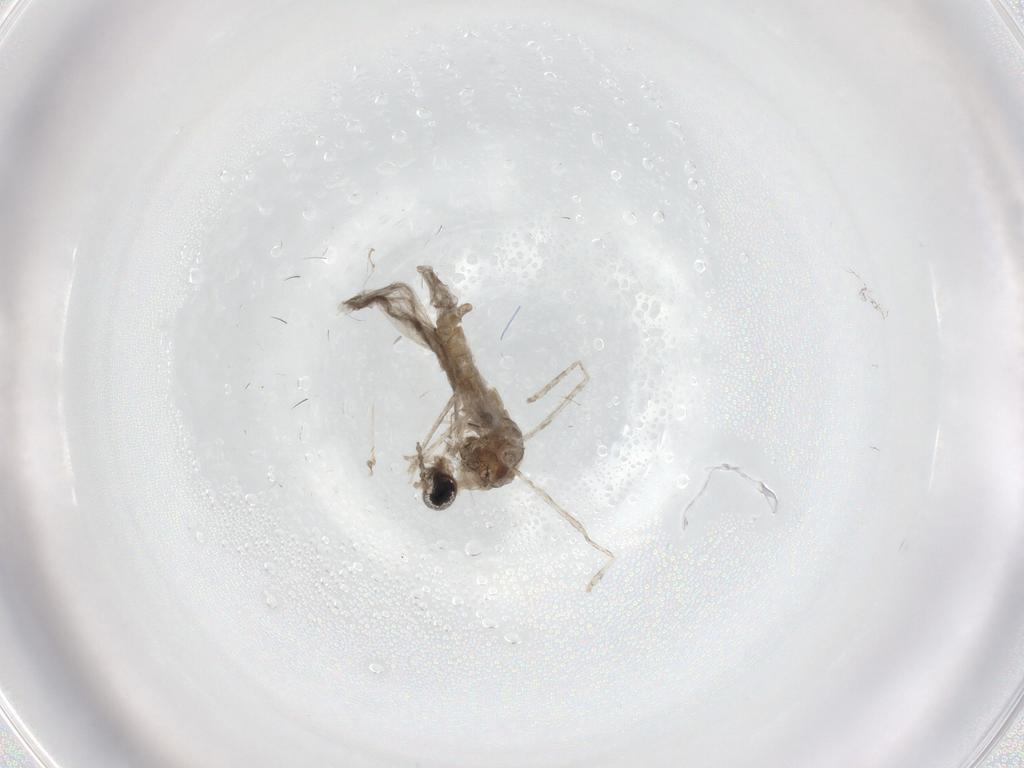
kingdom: Animalia
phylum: Arthropoda
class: Insecta
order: Diptera
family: Cecidomyiidae
